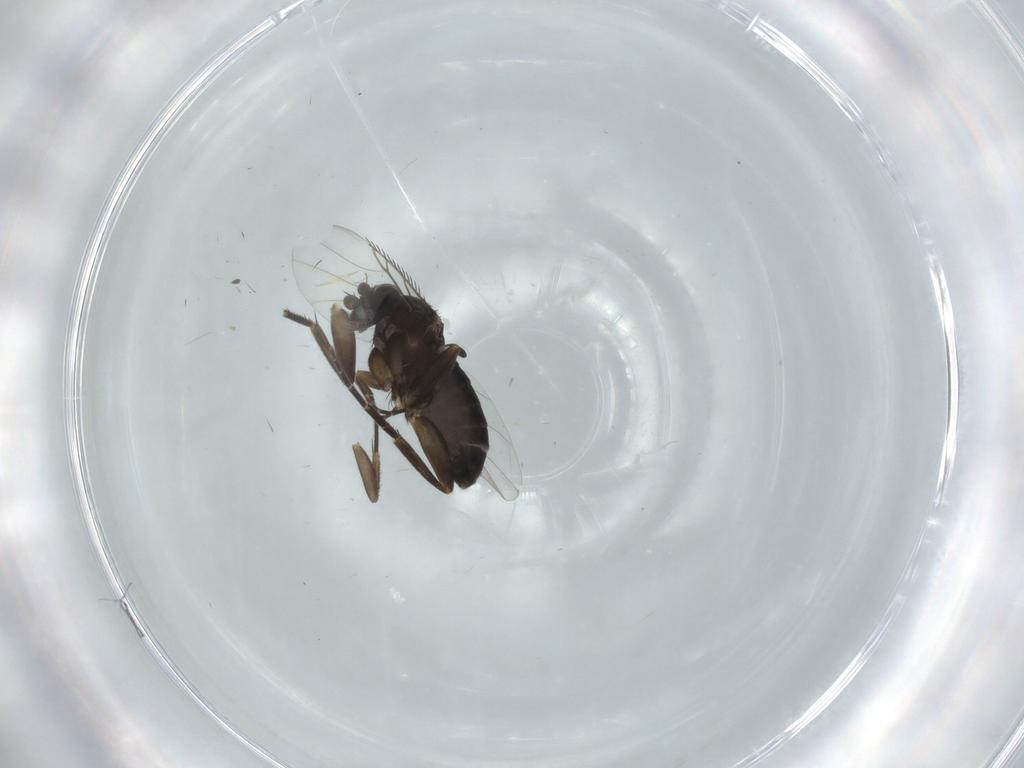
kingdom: Animalia
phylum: Arthropoda
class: Insecta
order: Diptera
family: Phoridae
